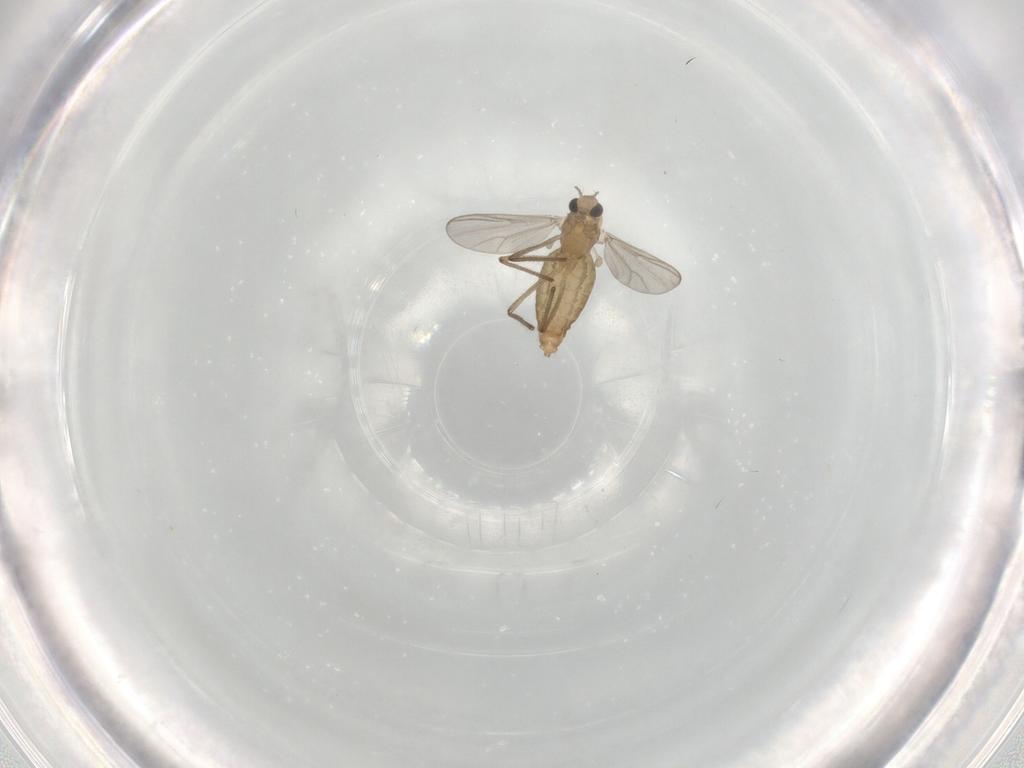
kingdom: Animalia
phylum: Arthropoda
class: Insecta
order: Diptera
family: Chironomidae
